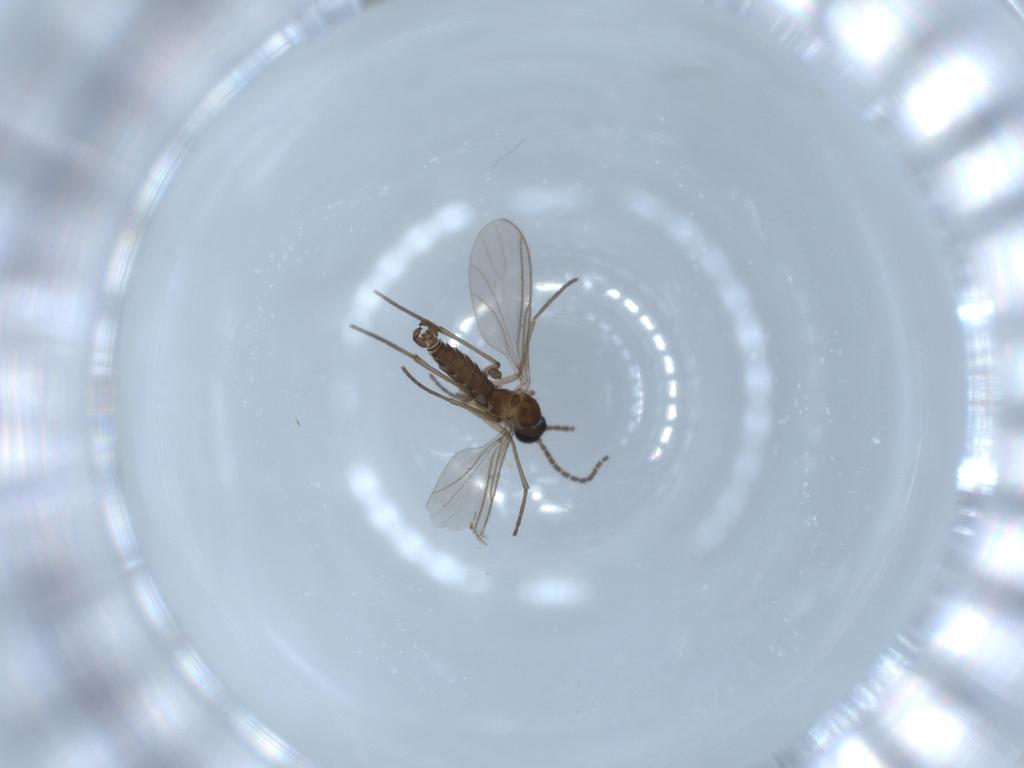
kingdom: Animalia
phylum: Arthropoda
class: Insecta
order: Diptera
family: Sciaridae
